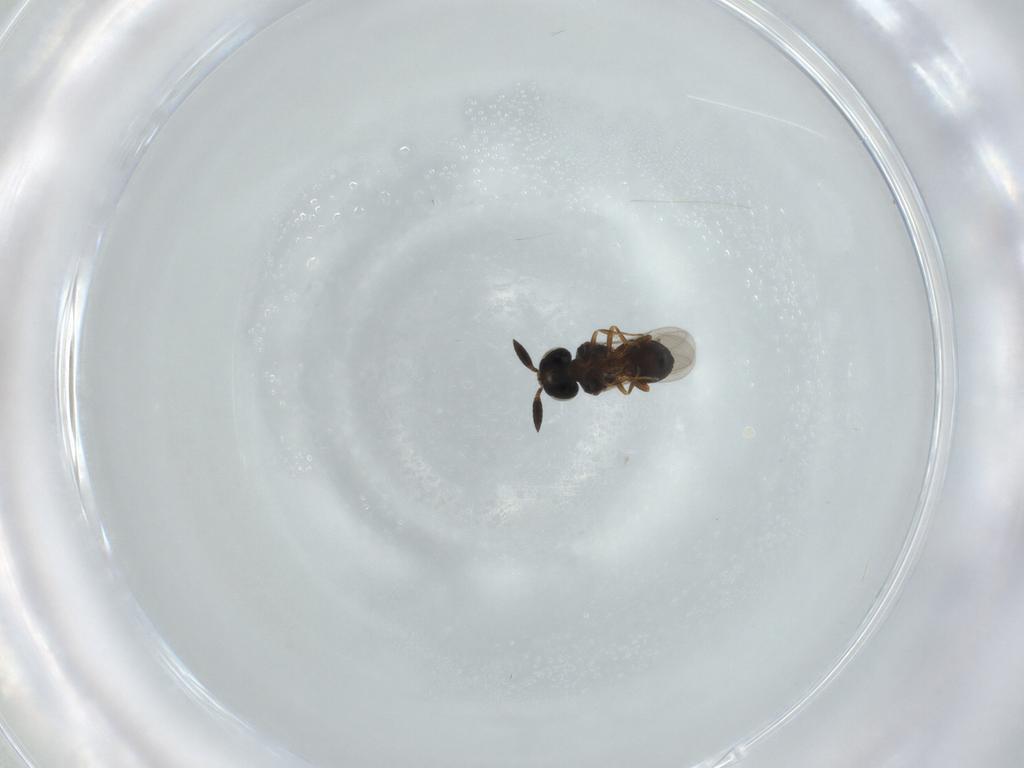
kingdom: Animalia
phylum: Arthropoda
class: Insecta
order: Hymenoptera
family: Scelionidae
